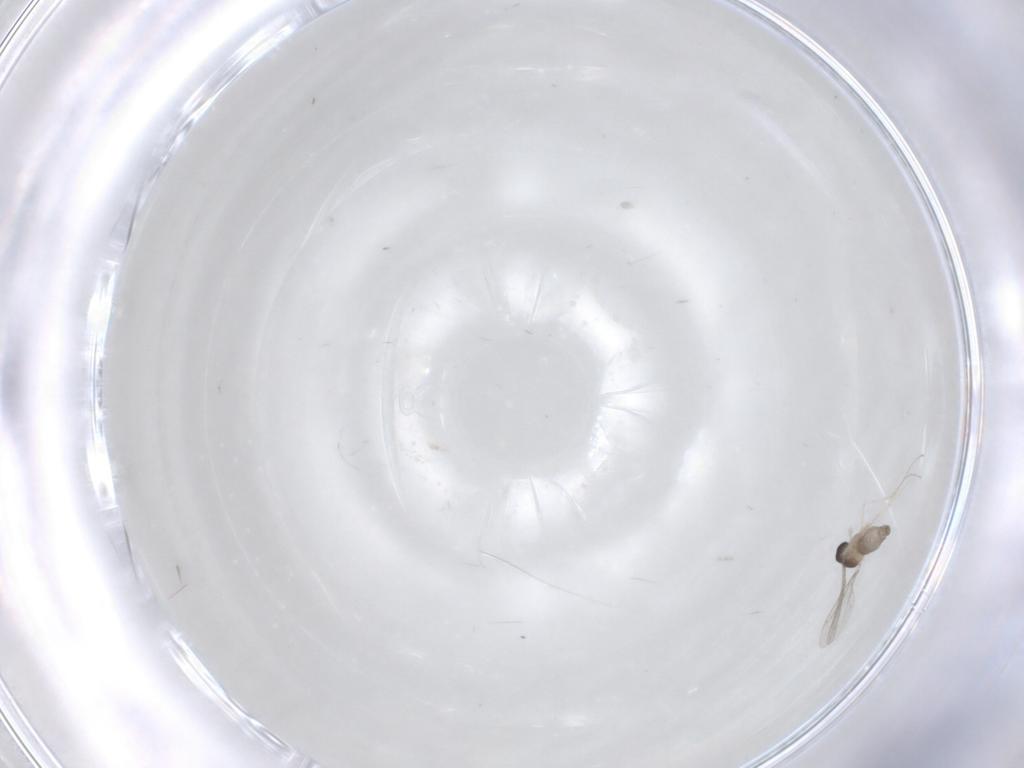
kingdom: Animalia
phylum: Arthropoda
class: Insecta
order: Diptera
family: Cecidomyiidae
